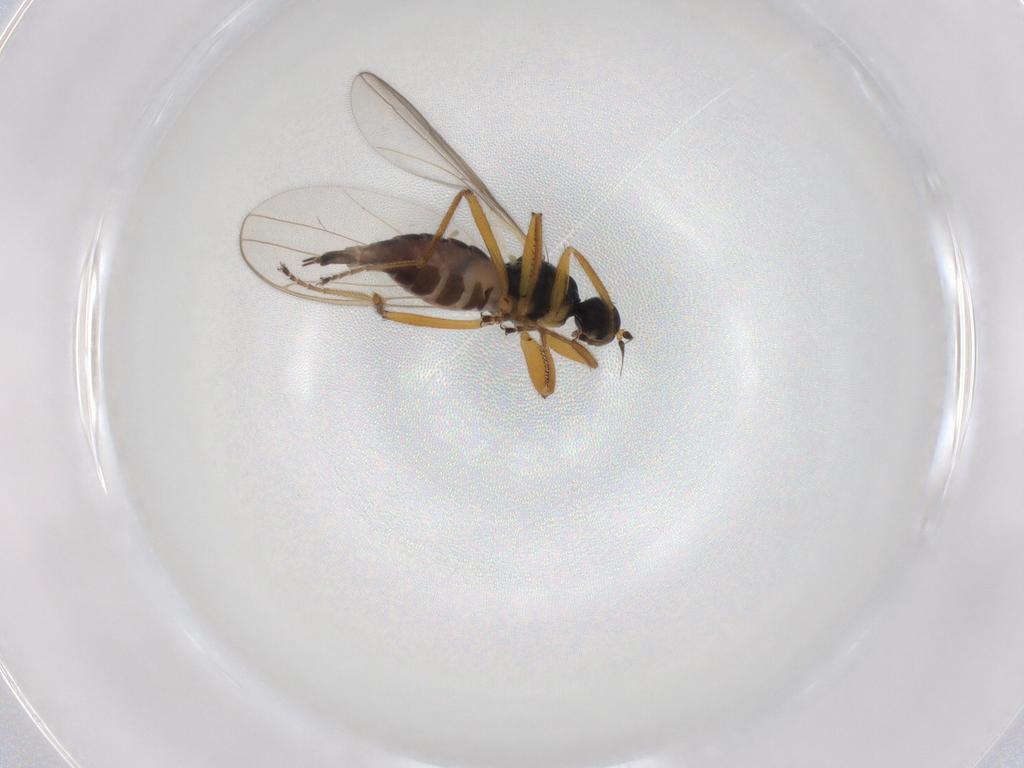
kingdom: Animalia
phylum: Arthropoda
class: Insecta
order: Diptera
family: Hybotidae
